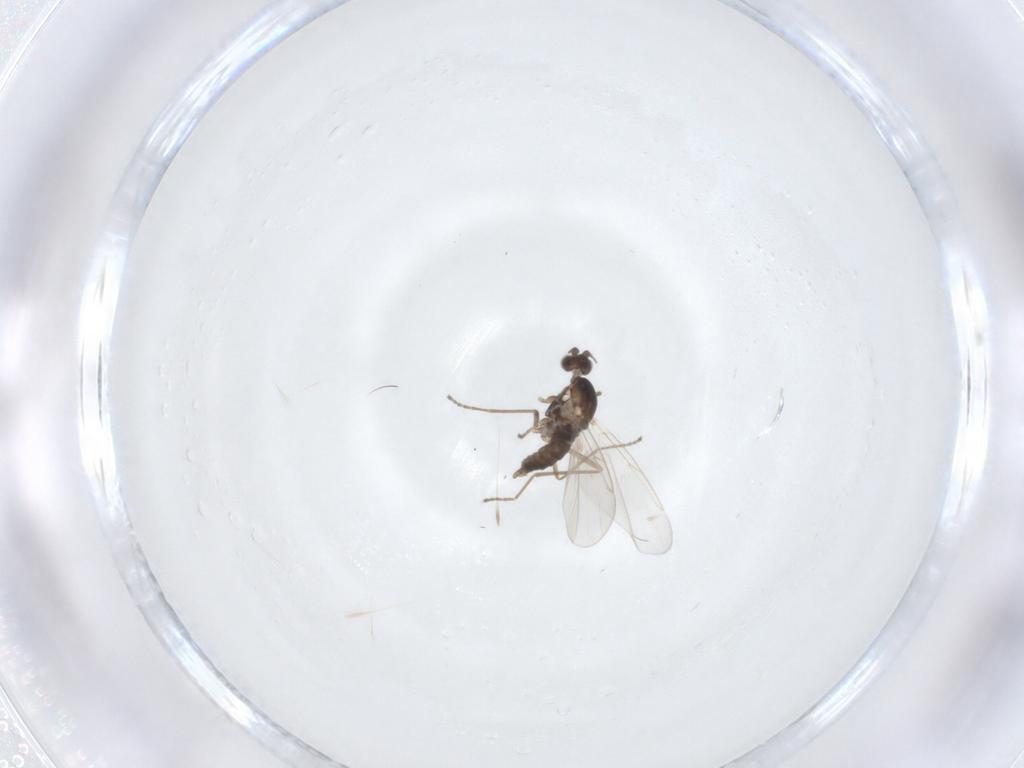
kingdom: Animalia
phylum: Arthropoda
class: Insecta
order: Diptera
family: Cecidomyiidae
